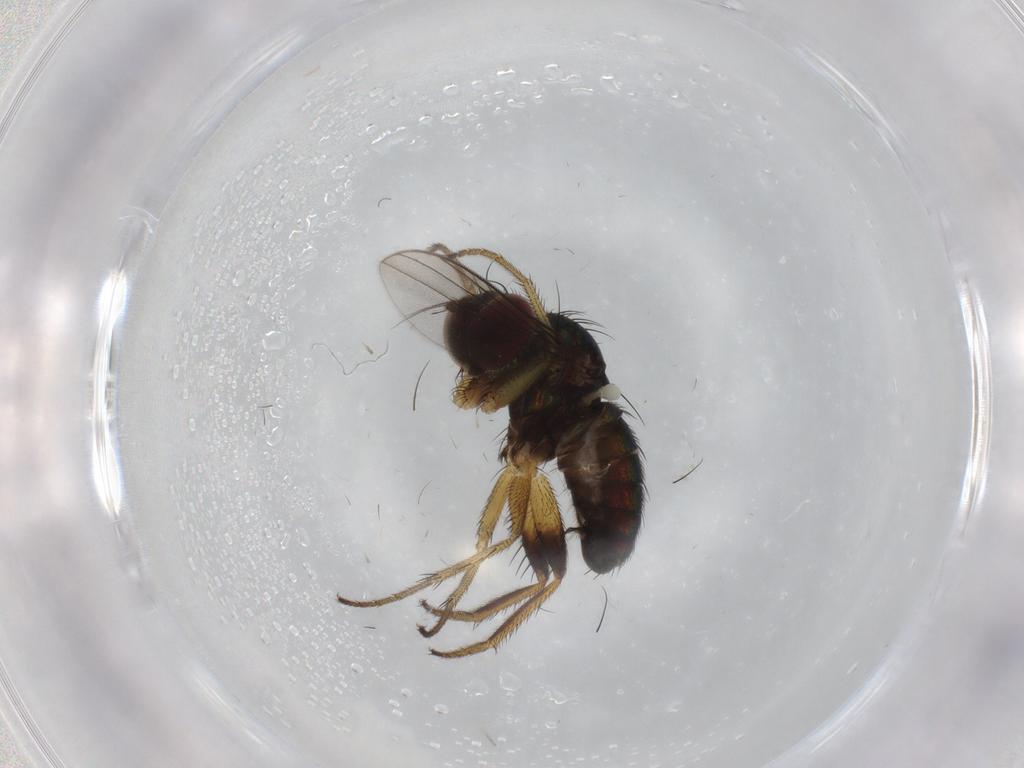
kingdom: Animalia
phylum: Arthropoda
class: Insecta
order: Diptera
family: Dolichopodidae
